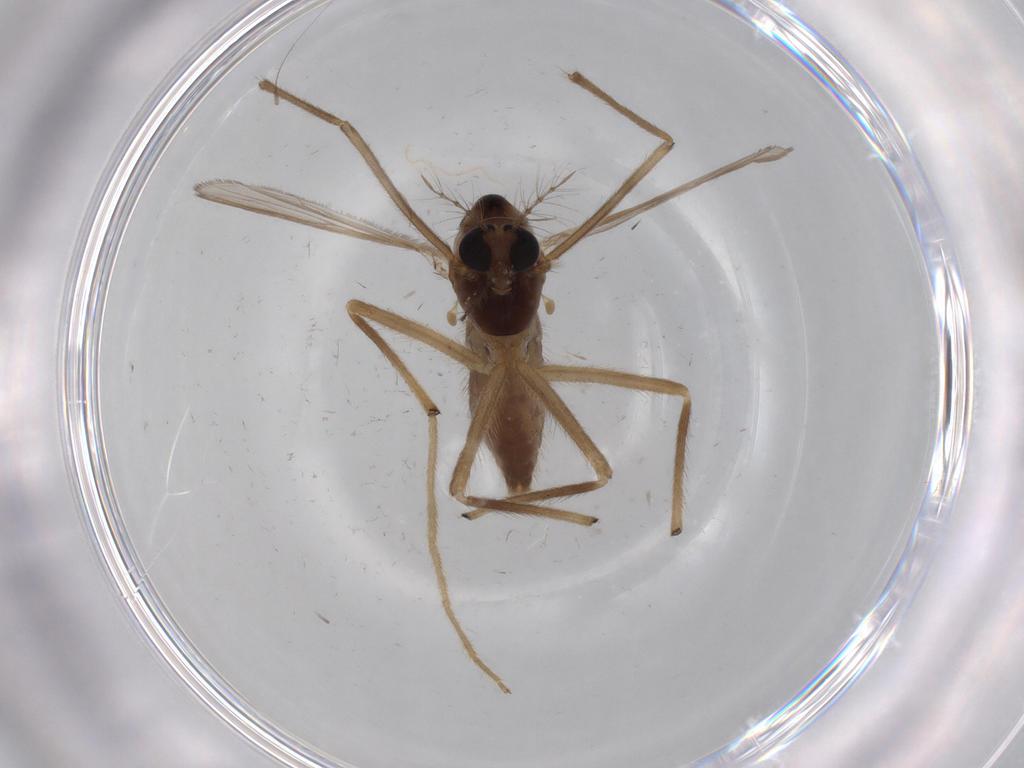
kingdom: Animalia
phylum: Arthropoda
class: Insecta
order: Diptera
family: Chironomidae
